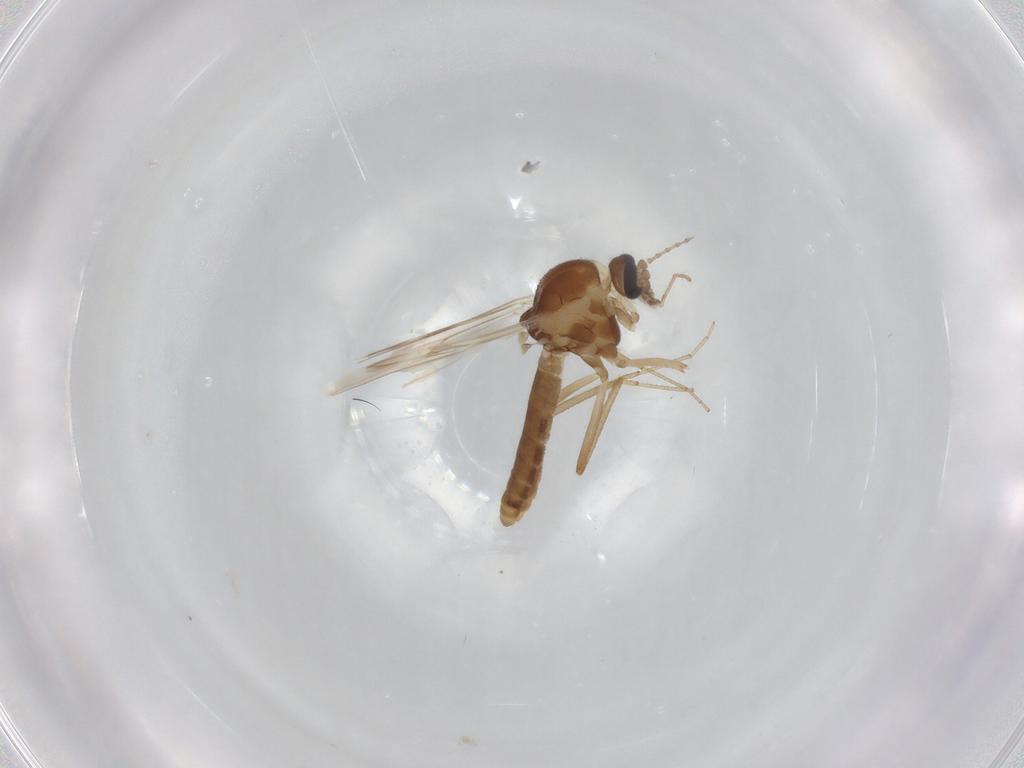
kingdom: Animalia
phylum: Arthropoda
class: Insecta
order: Diptera
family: Ceratopogonidae
